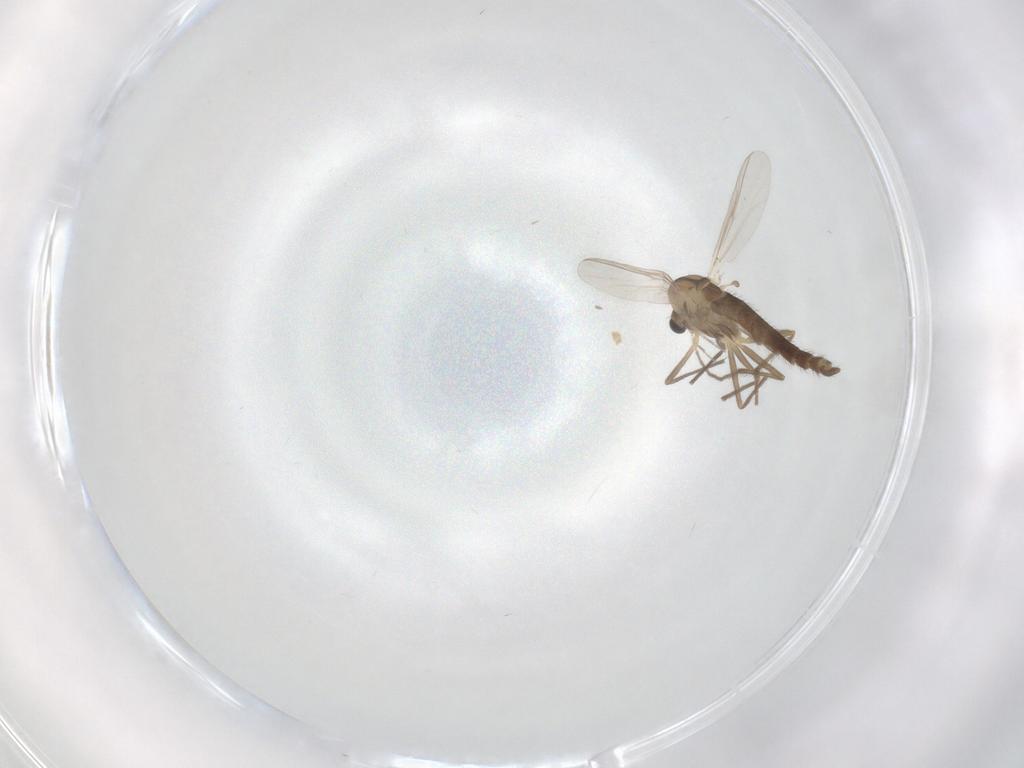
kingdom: Animalia
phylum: Arthropoda
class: Insecta
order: Diptera
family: Chironomidae
